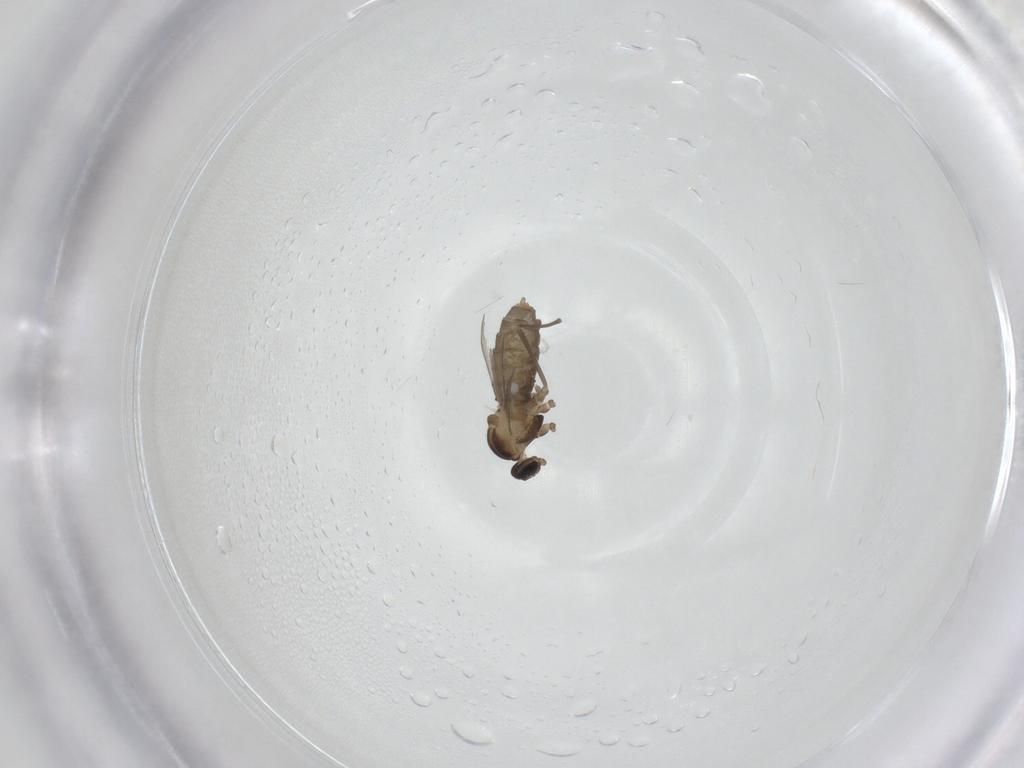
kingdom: Animalia
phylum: Arthropoda
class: Insecta
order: Diptera
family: Cecidomyiidae
